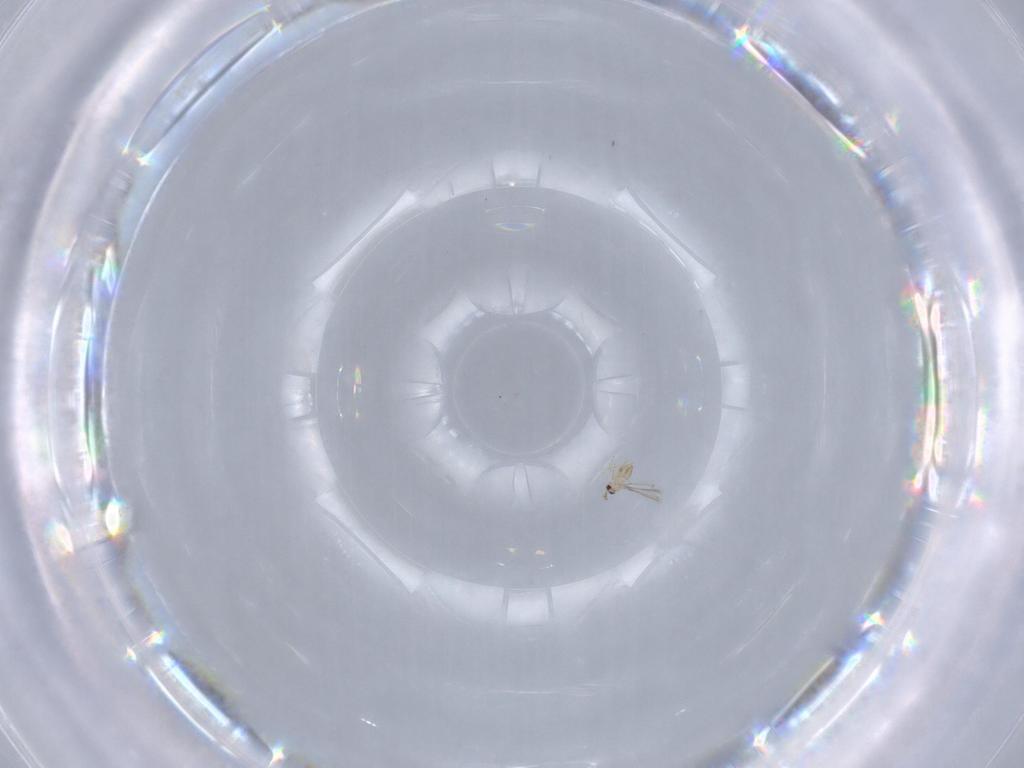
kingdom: Animalia
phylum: Arthropoda
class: Insecta
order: Hymenoptera
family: Mymaridae
